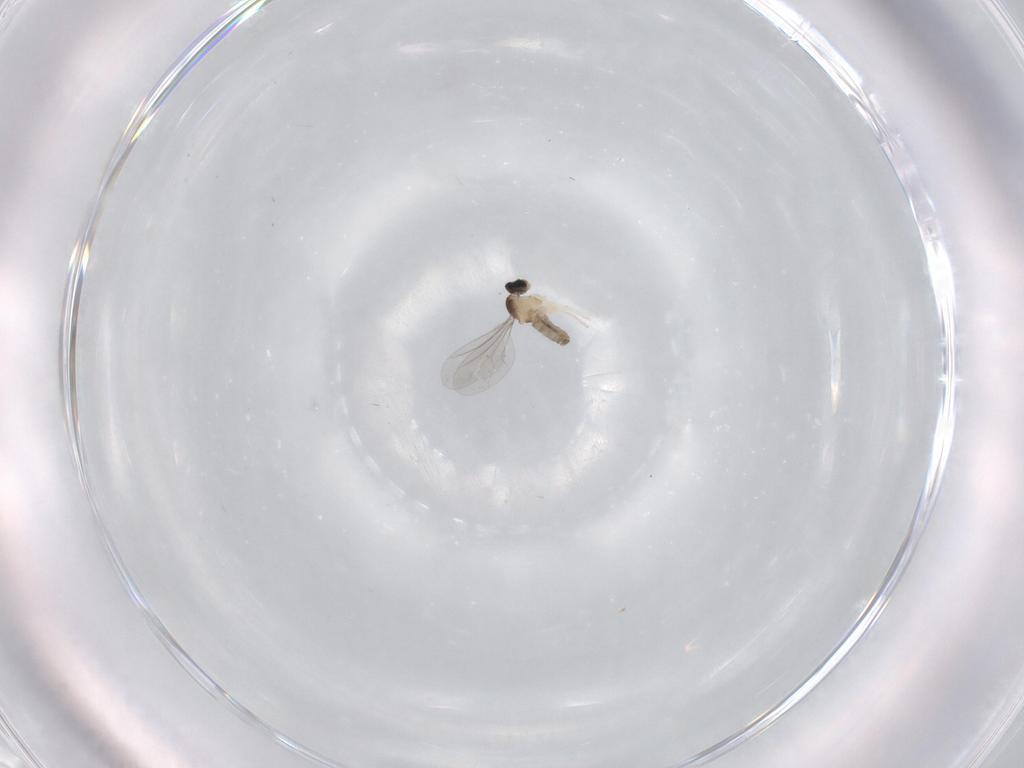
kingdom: Animalia
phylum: Arthropoda
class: Insecta
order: Diptera
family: Cecidomyiidae
